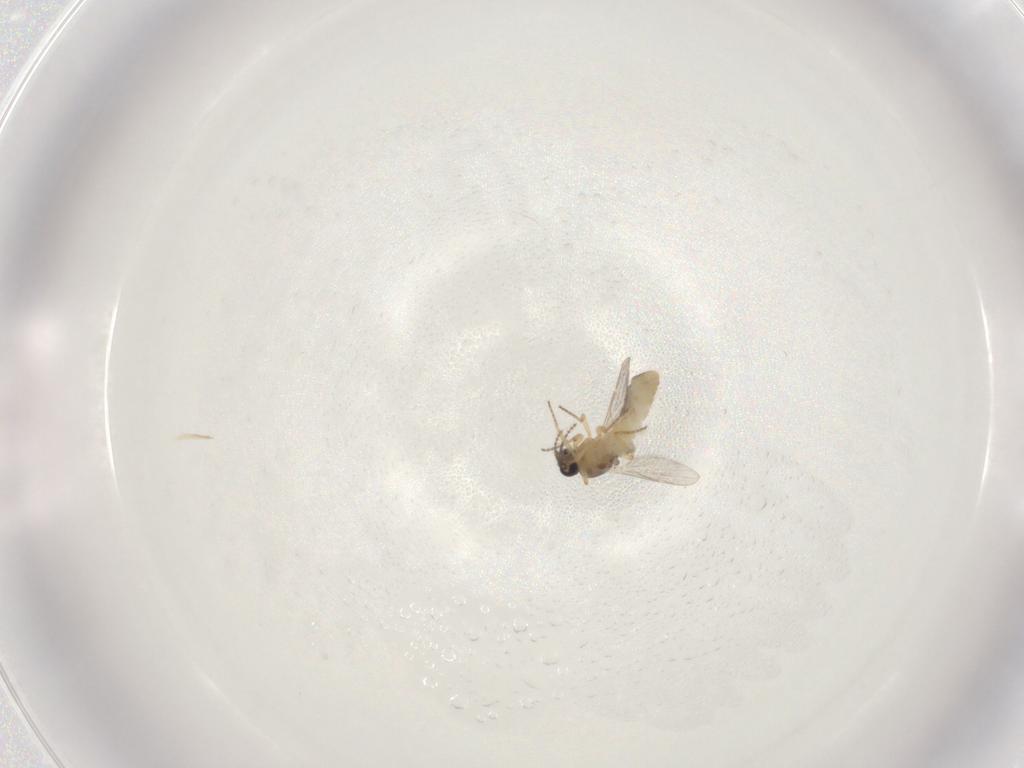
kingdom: Animalia
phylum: Arthropoda
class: Insecta
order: Diptera
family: Ceratopogonidae
